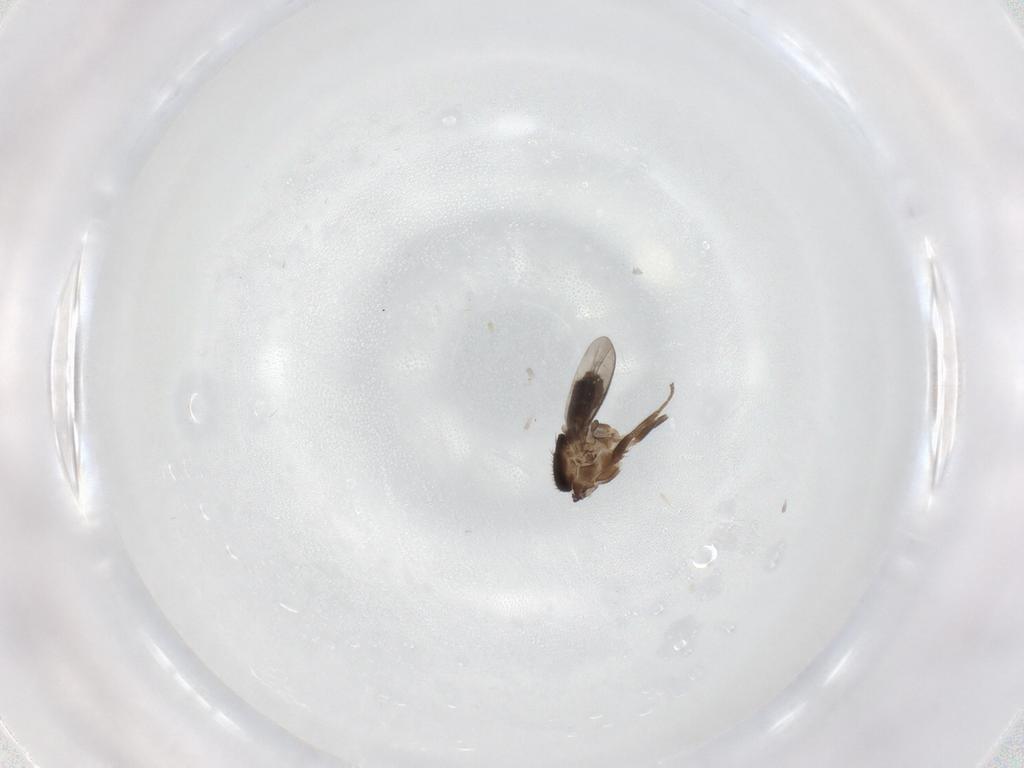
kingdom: Animalia
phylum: Arthropoda
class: Insecta
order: Diptera
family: Sphaeroceridae
